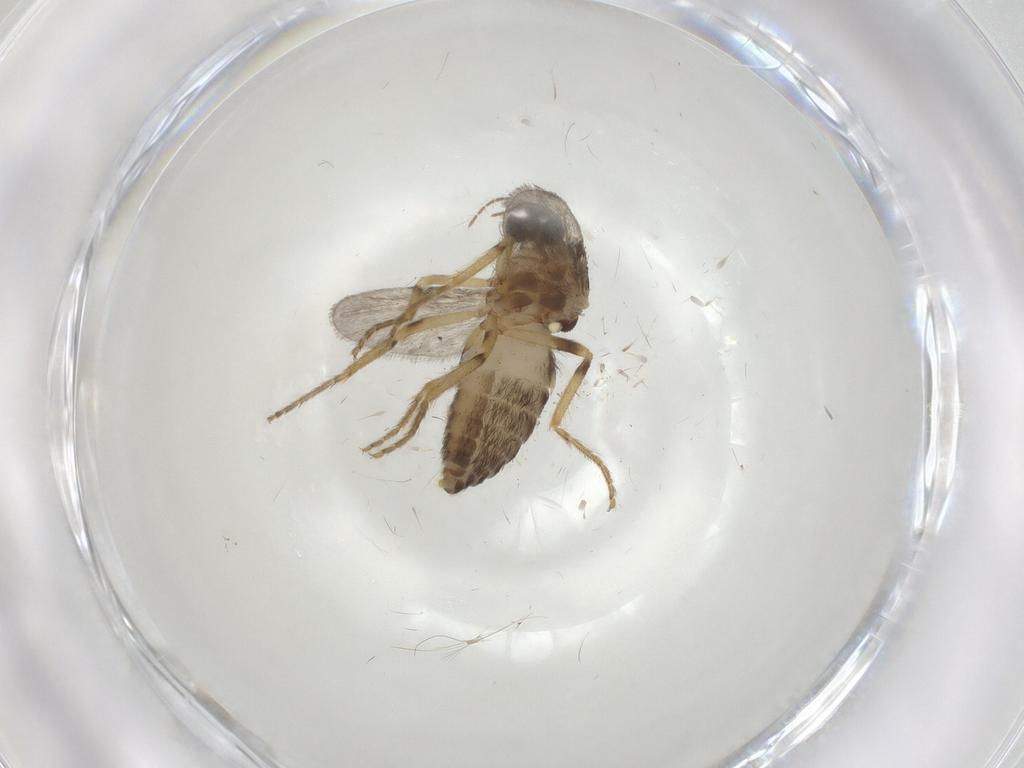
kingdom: Animalia
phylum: Arthropoda
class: Insecta
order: Diptera
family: Ceratopogonidae
